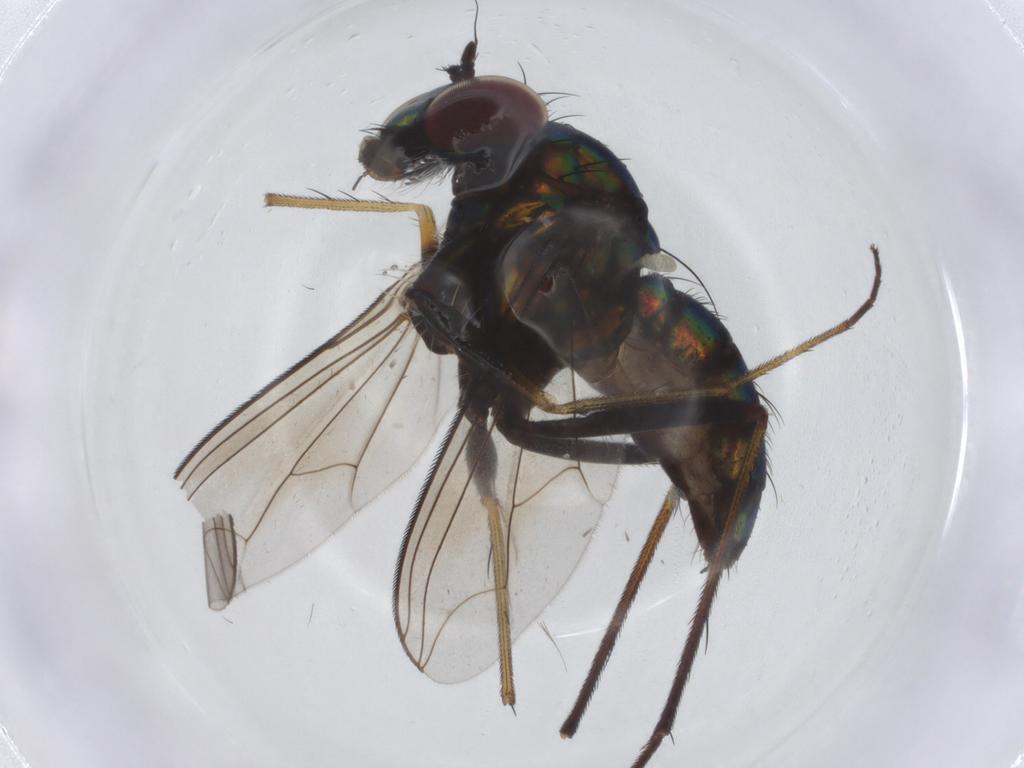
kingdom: Animalia
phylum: Arthropoda
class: Insecta
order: Diptera
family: Dolichopodidae
